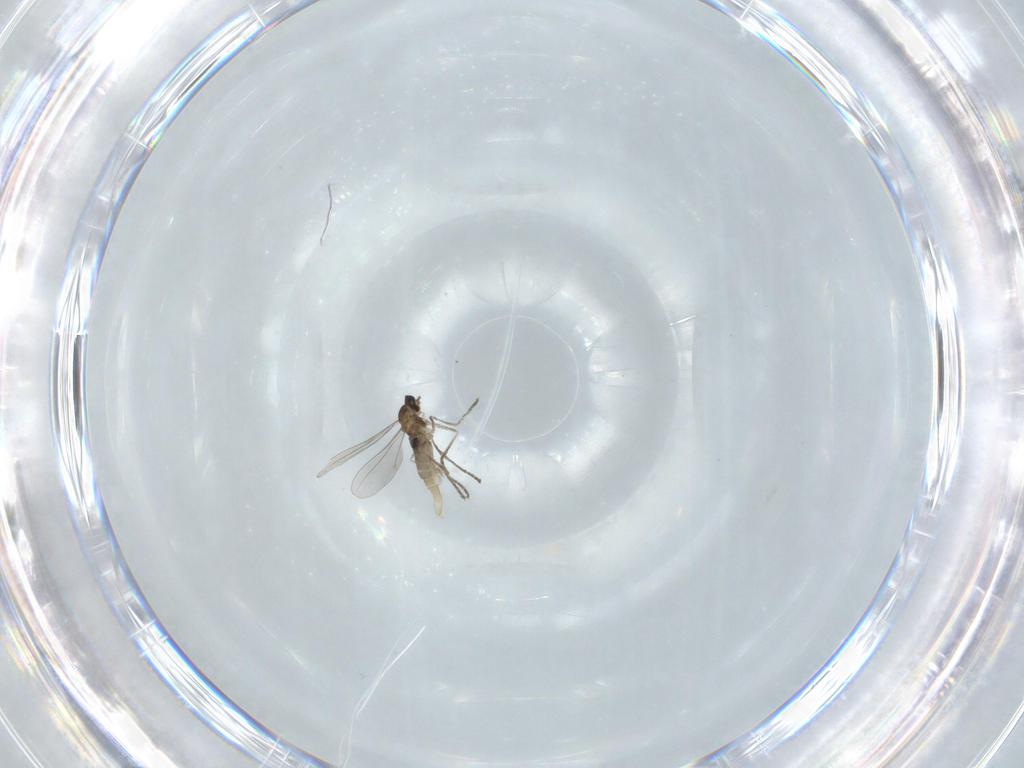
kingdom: Animalia
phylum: Arthropoda
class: Insecta
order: Diptera
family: Cecidomyiidae
